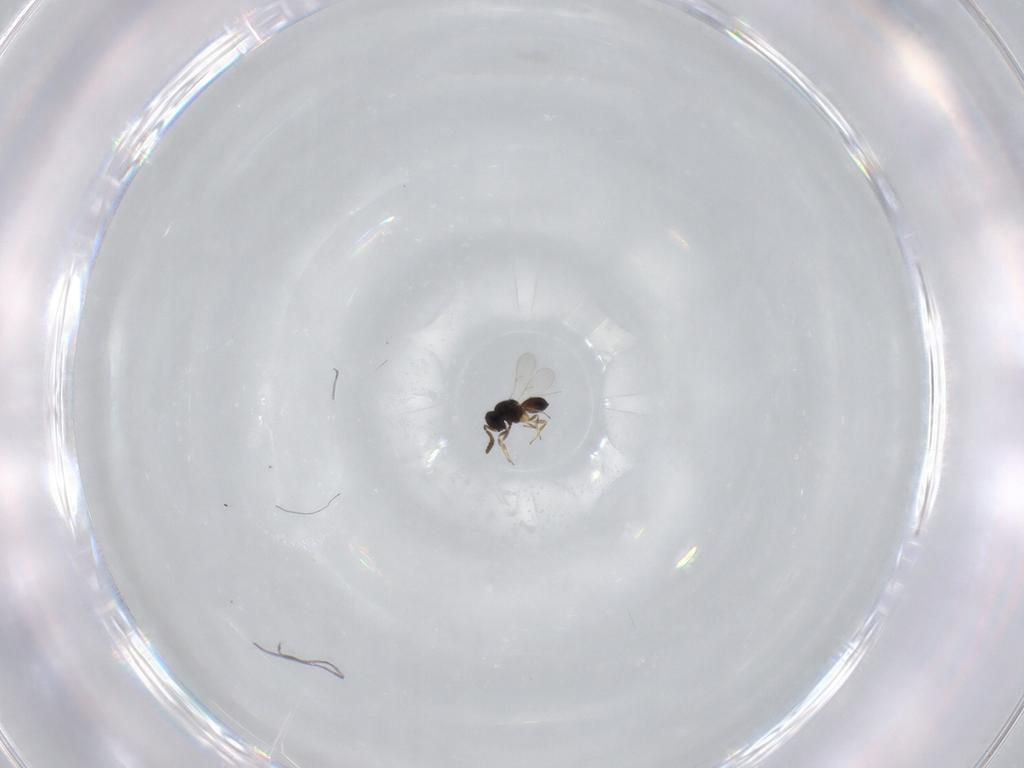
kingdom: Animalia
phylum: Arthropoda
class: Insecta
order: Hymenoptera
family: Scelionidae
